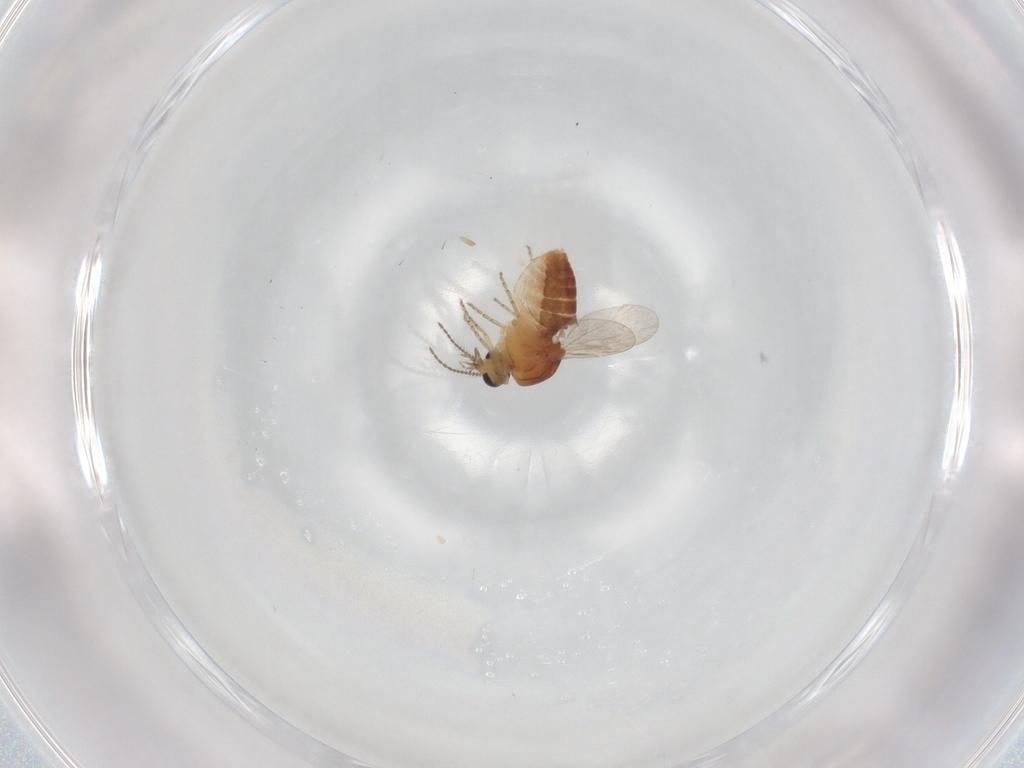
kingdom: Animalia
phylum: Arthropoda
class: Insecta
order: Diptera
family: Ceratopogonidae
